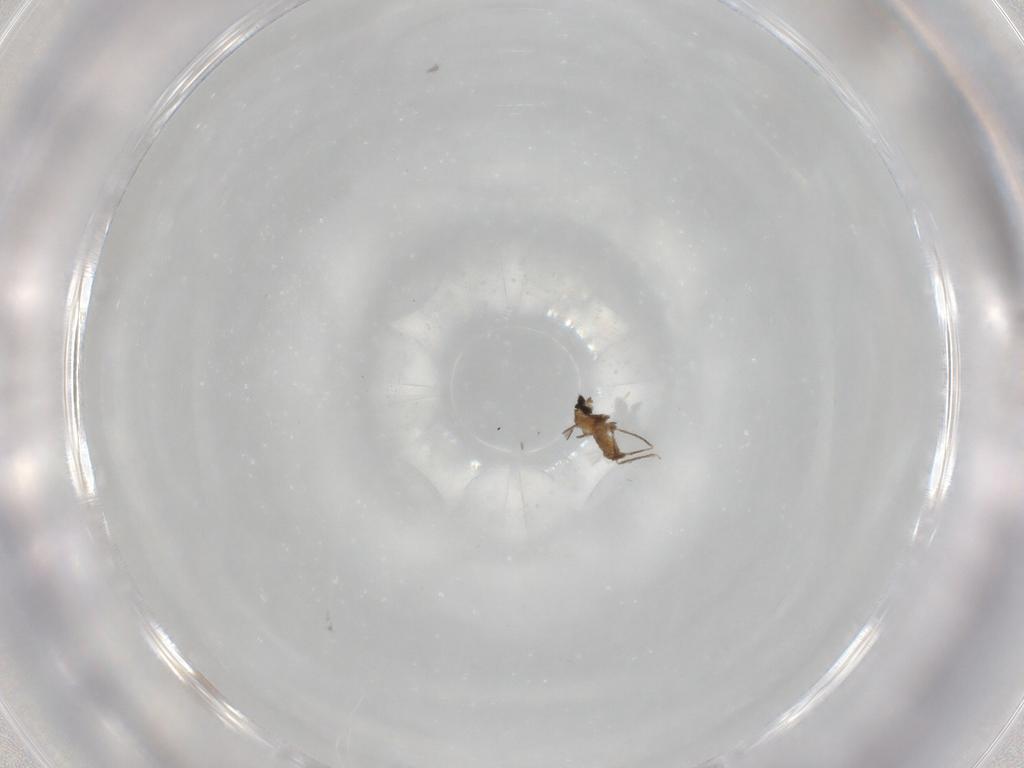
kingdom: Animalia
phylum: Arthropoda
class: Insecta
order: Diptera
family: Cecidomyiidae
